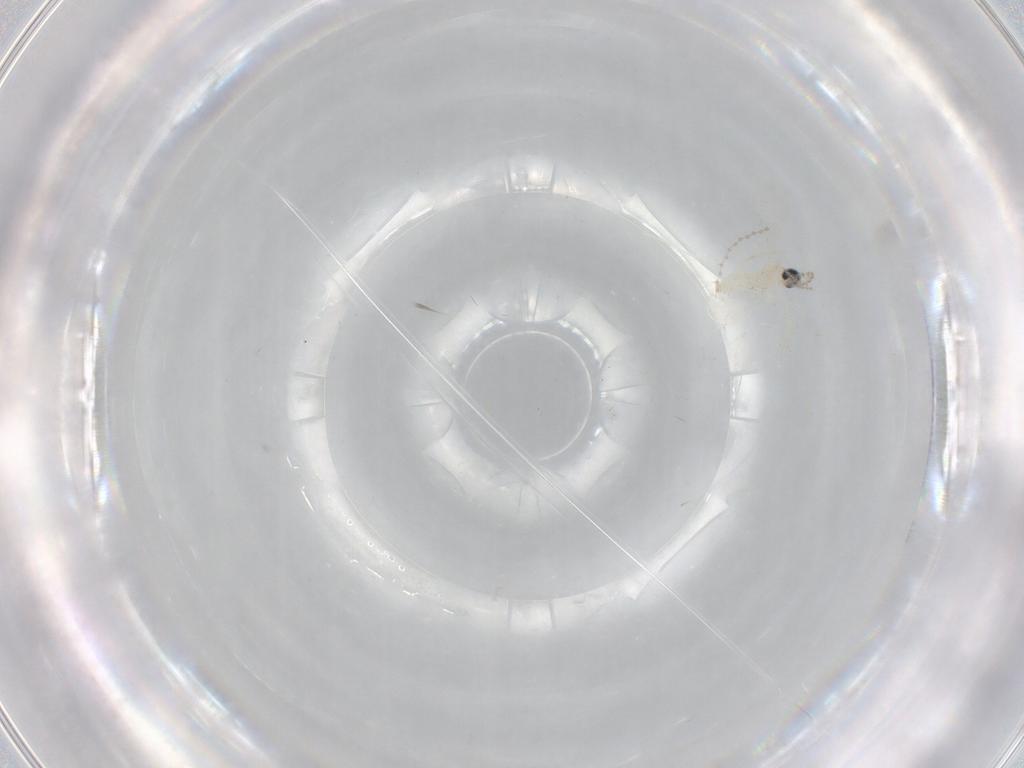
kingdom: Animalia
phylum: Arthropoda
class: Insecta
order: Diptera
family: Cecidomyiidae
